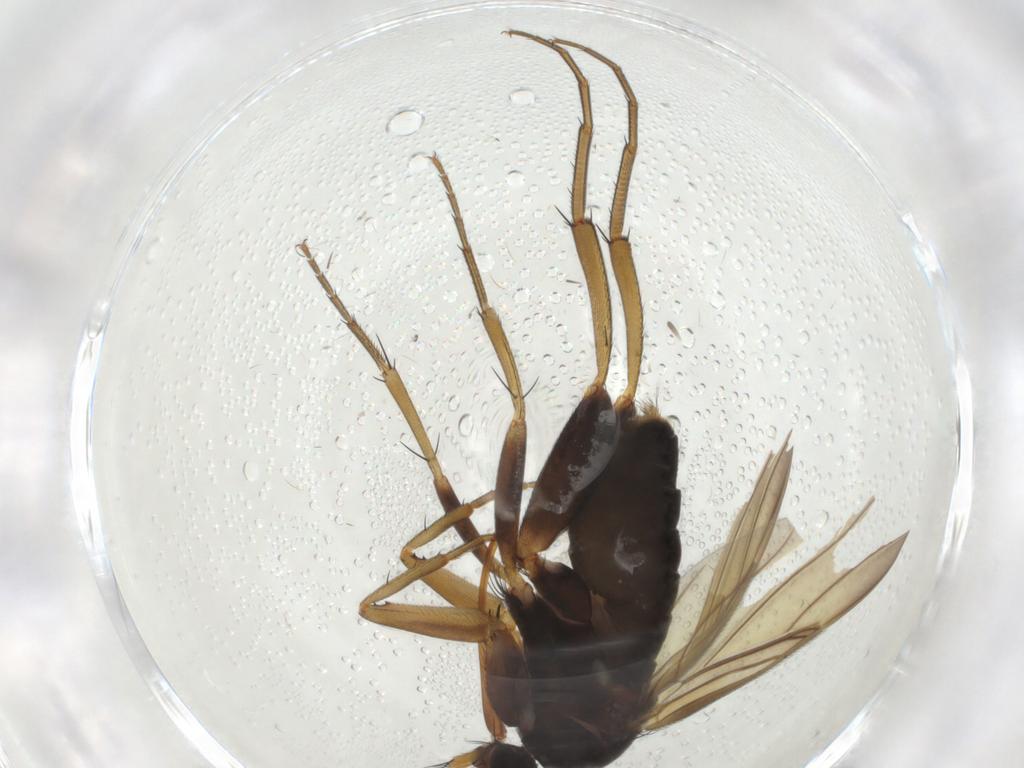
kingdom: Animalia
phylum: Arthropoda
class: Insecta
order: Diptera
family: Phoridae
